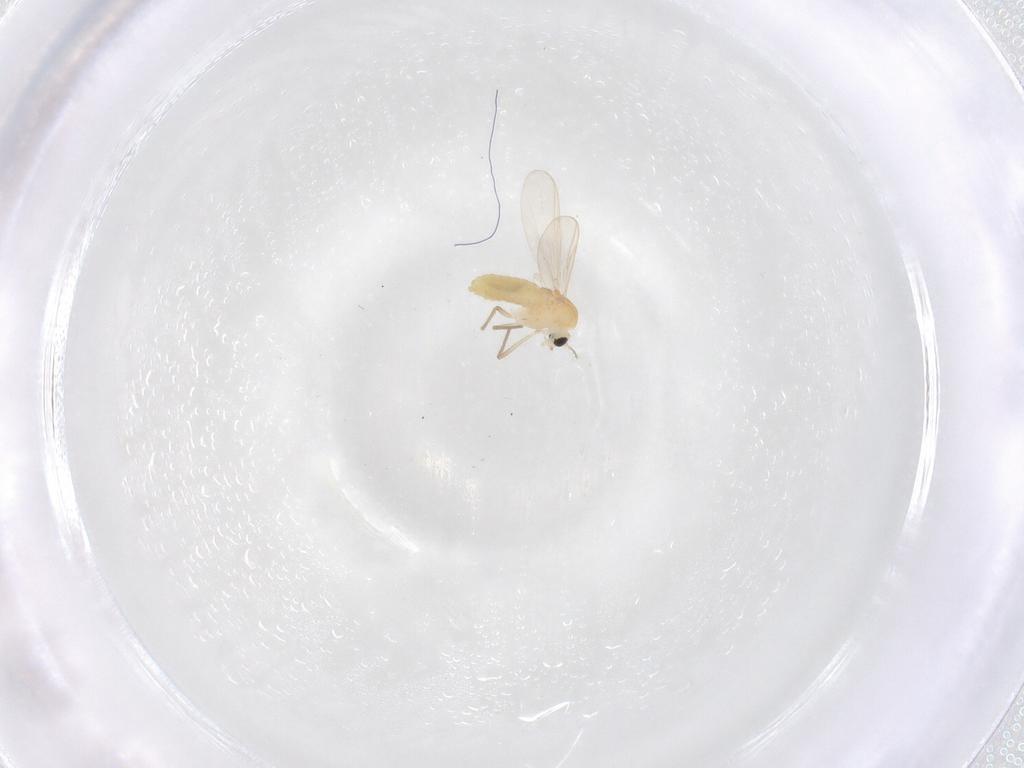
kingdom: Animalia
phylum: Arthropoda
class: Insecta
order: Diptera
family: Chironomidae
